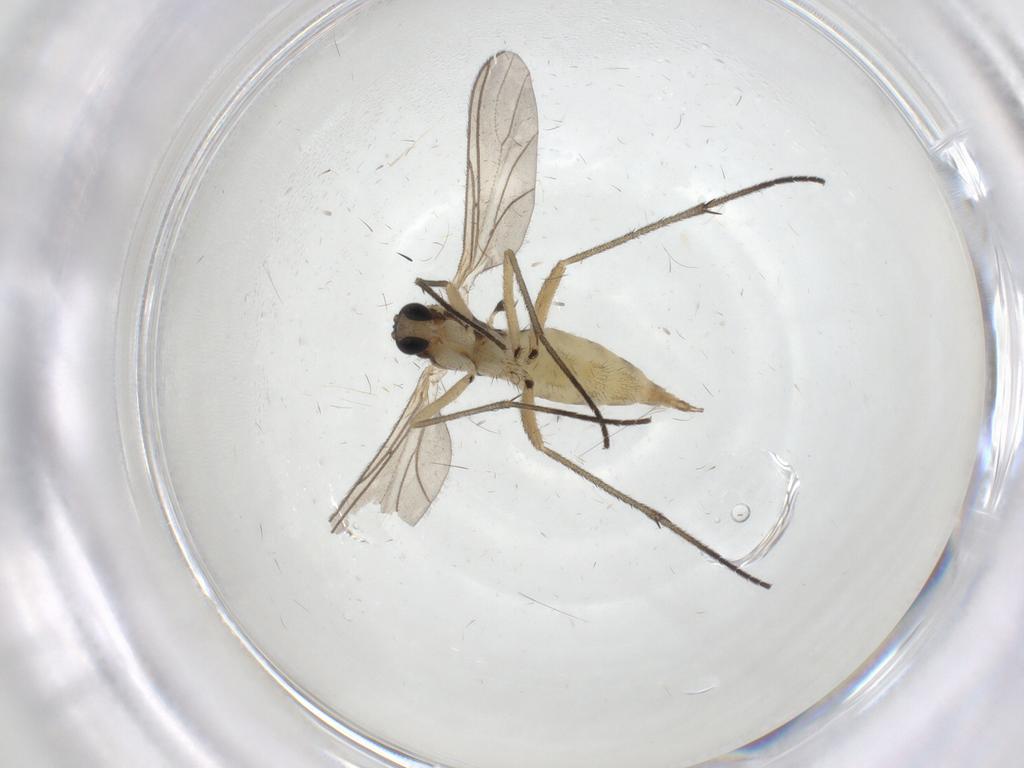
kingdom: Animalia
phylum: Arthropoda
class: Insecta
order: Diptera
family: Sciaridae
